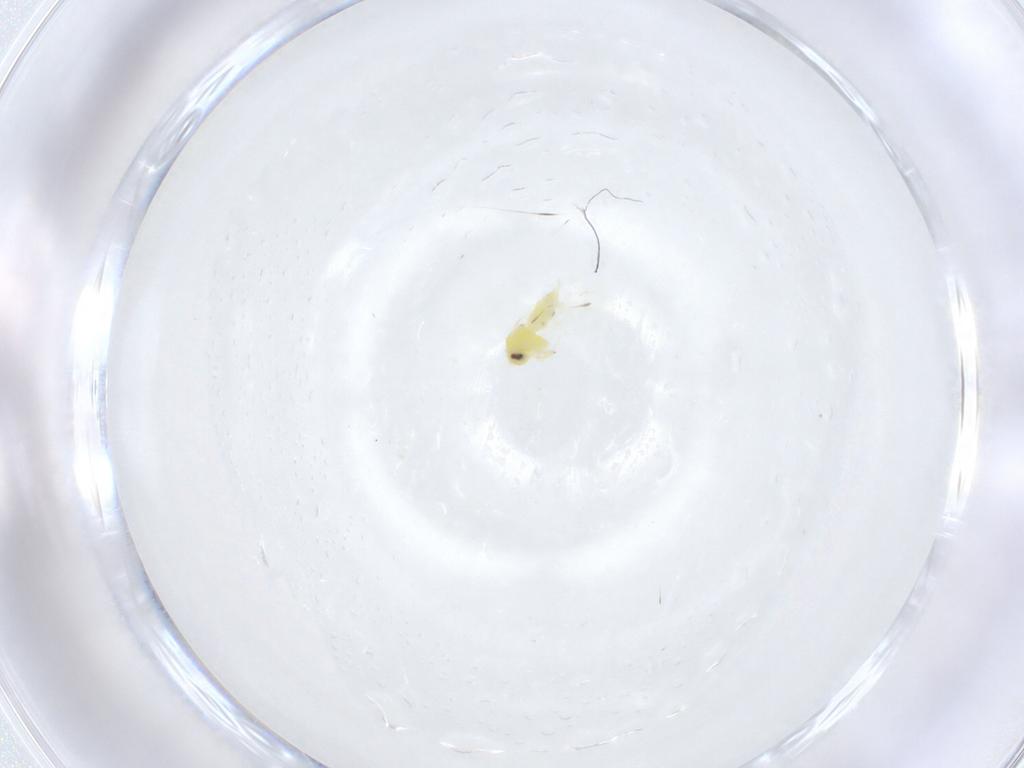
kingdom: Animalia
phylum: Arthropoda
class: Insecta
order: Hemiptera
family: Aleyrodidae
